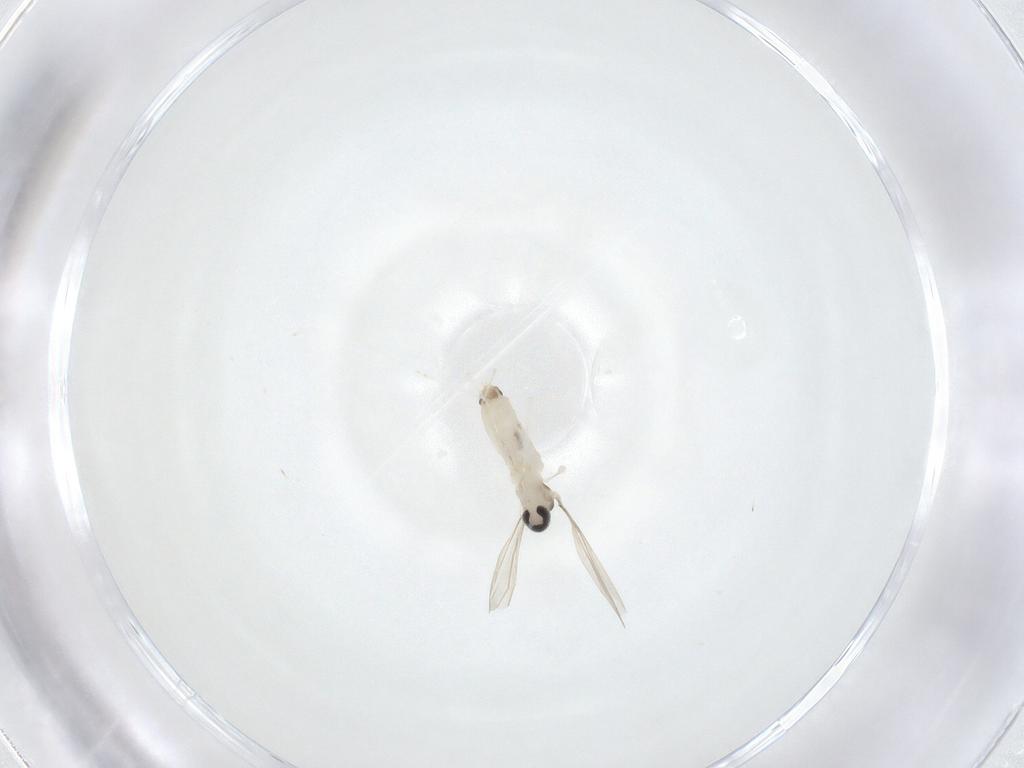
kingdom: Animalia
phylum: Arthropoda
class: Insecta
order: Diptera
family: Cecidomyiidae
